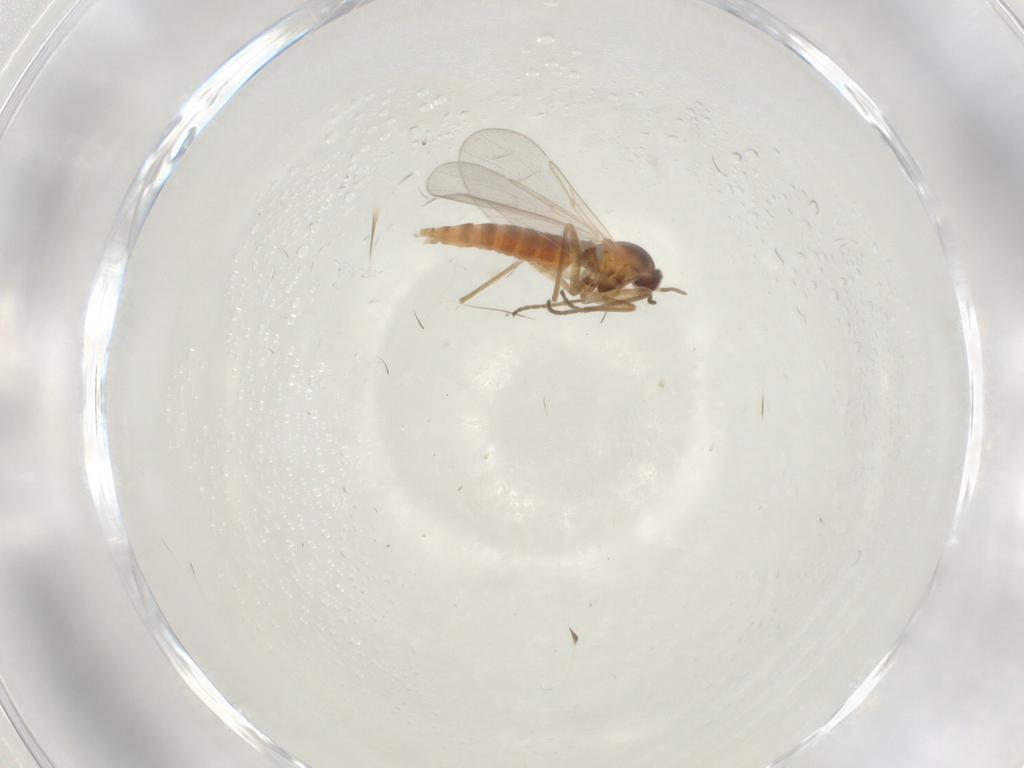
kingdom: Animalia
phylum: Arthropoda
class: Insecta
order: Diptera
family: Cecidomyiidae
